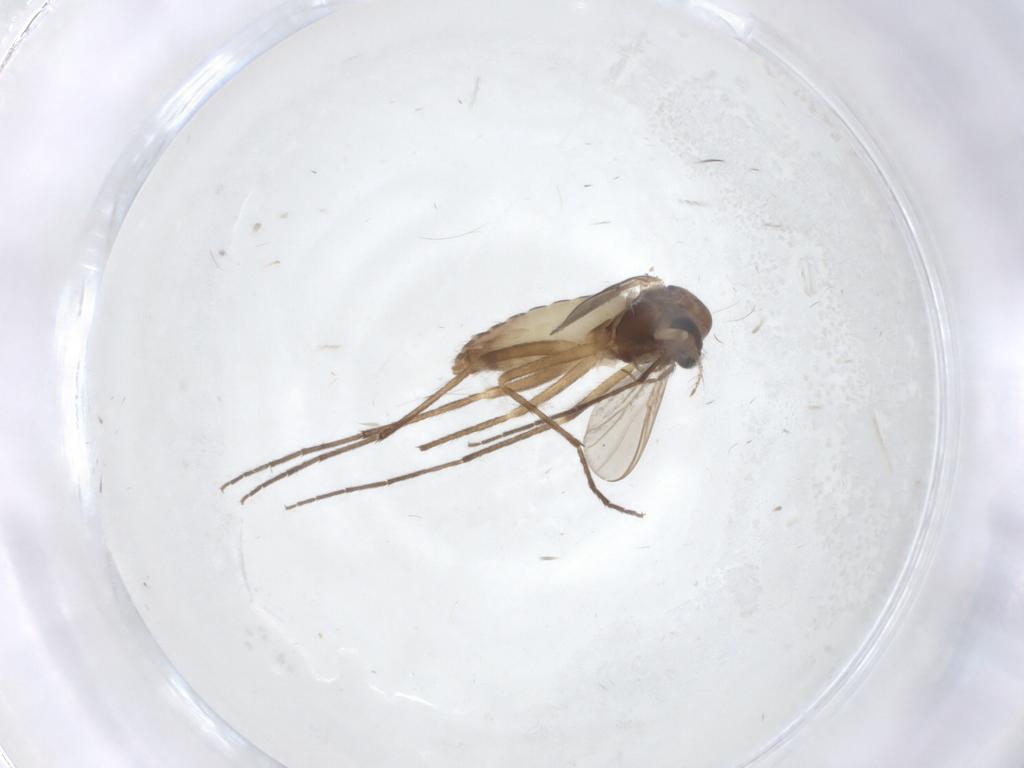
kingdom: Animalia
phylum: Arthropoda
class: Insecta
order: Diptera
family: Chironomidae
